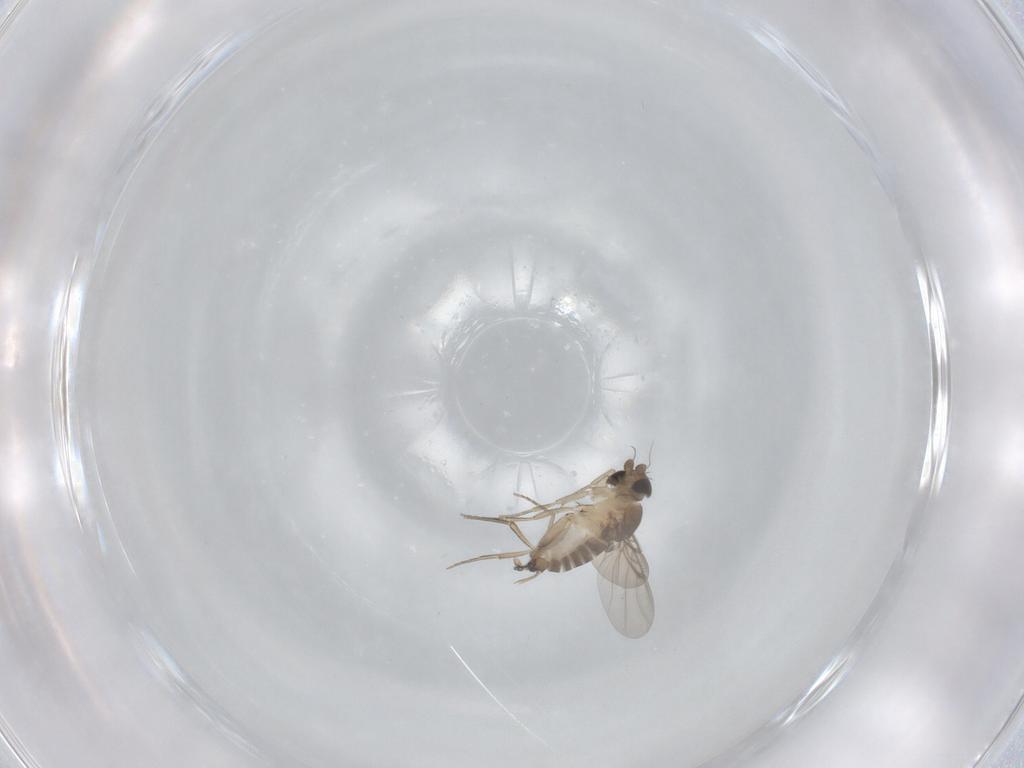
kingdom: Animalia
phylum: Arthropoda
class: Insecta
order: Diptera
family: Phoridae
